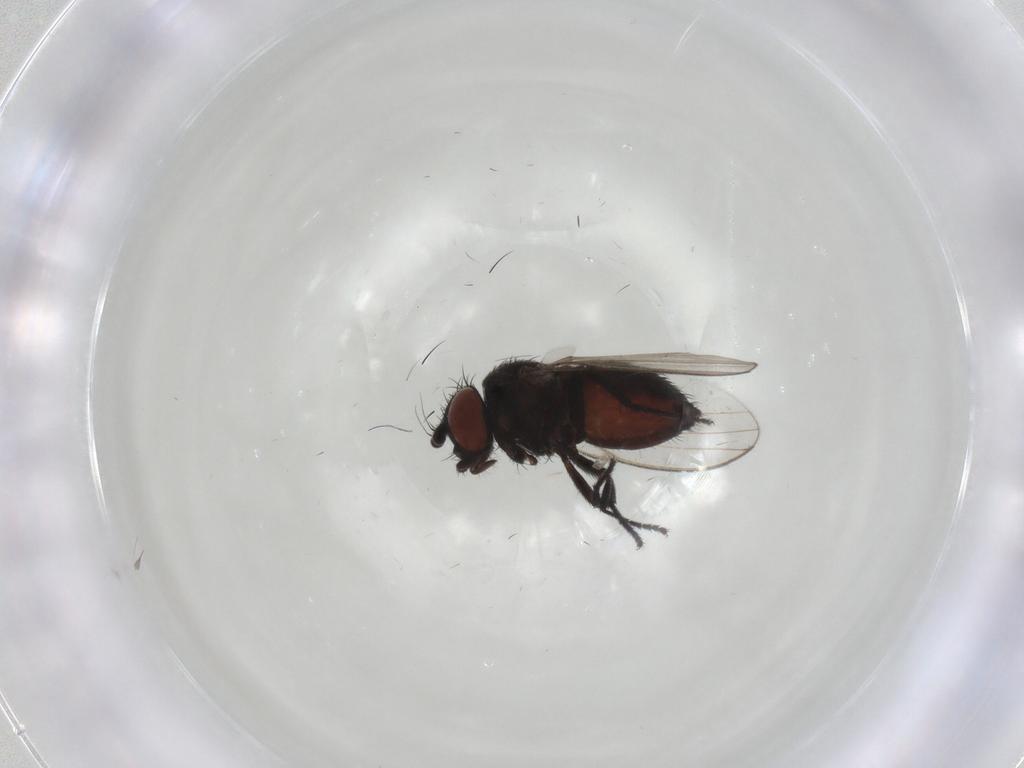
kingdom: Animalia
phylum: Arthropoda
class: Insecta
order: Diptera
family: Milichiidae
